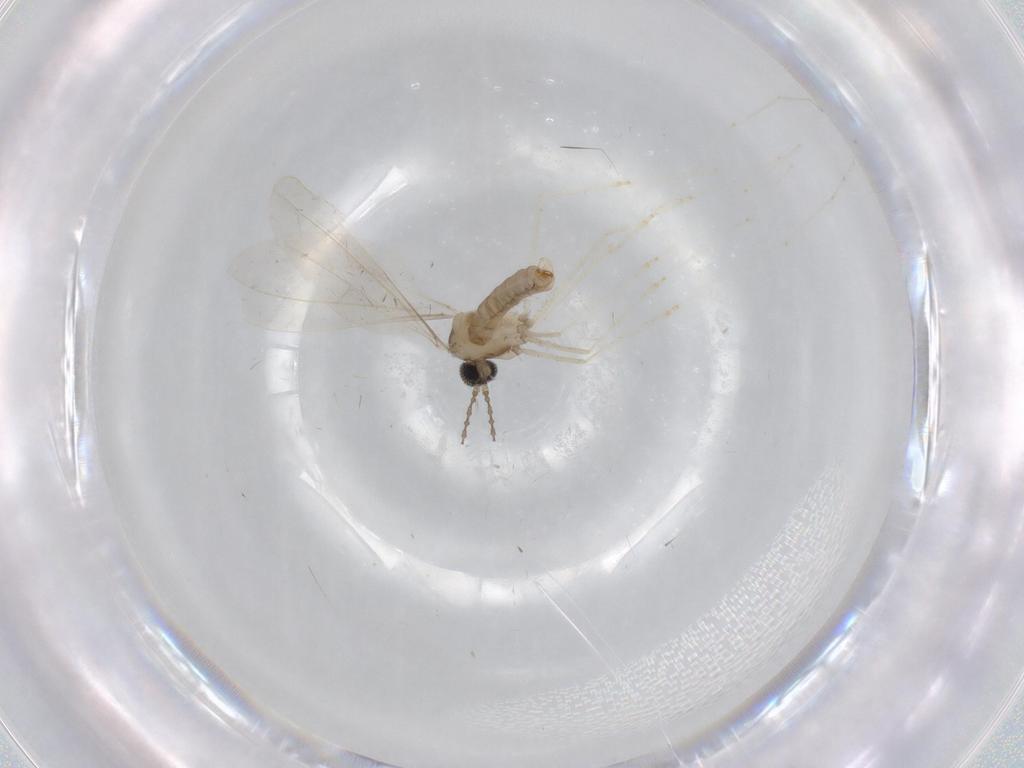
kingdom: Animalia
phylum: Arthropoda
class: Insecta
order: Diptera
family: Cecidomyiidae
